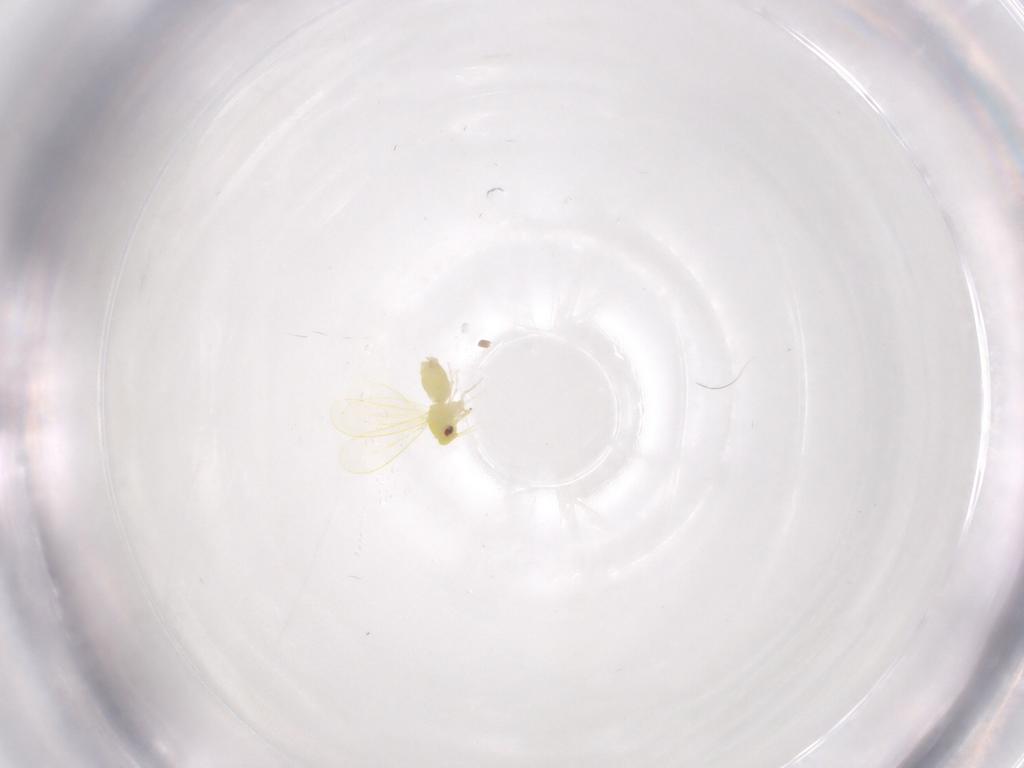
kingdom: Animalia
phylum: Arthropoda
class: Insecta
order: Hemiptera
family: Aleyrodidae
